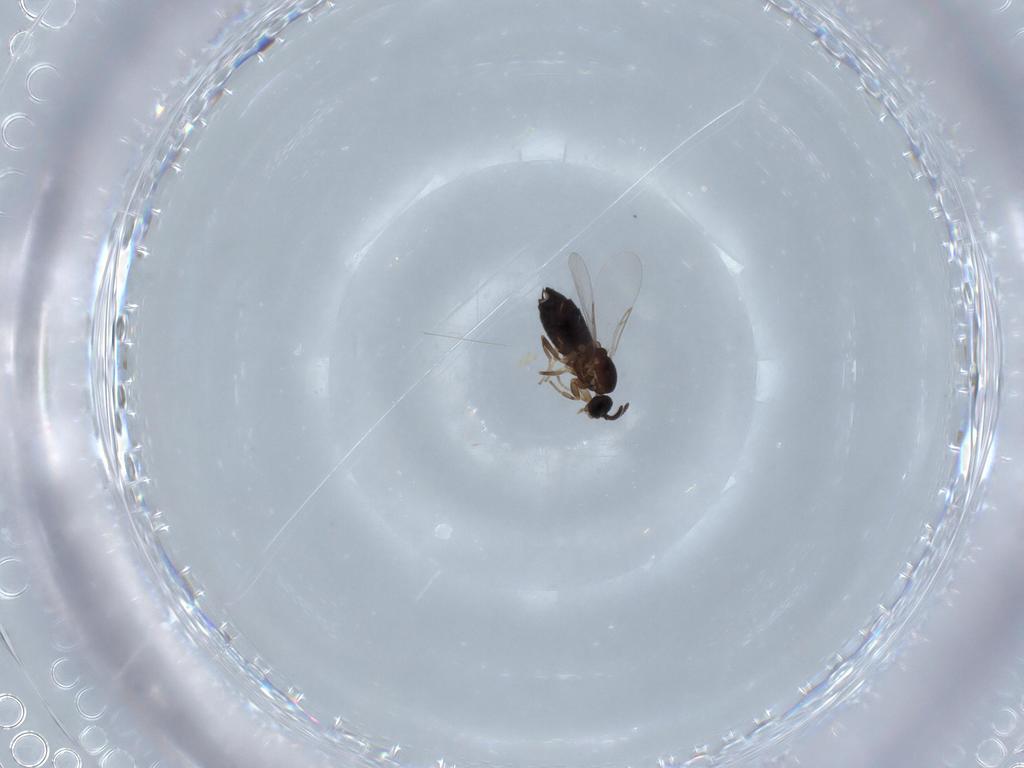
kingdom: Animalia
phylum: Arthropoda
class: Insecta
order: Diptera
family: Scatopsidae
